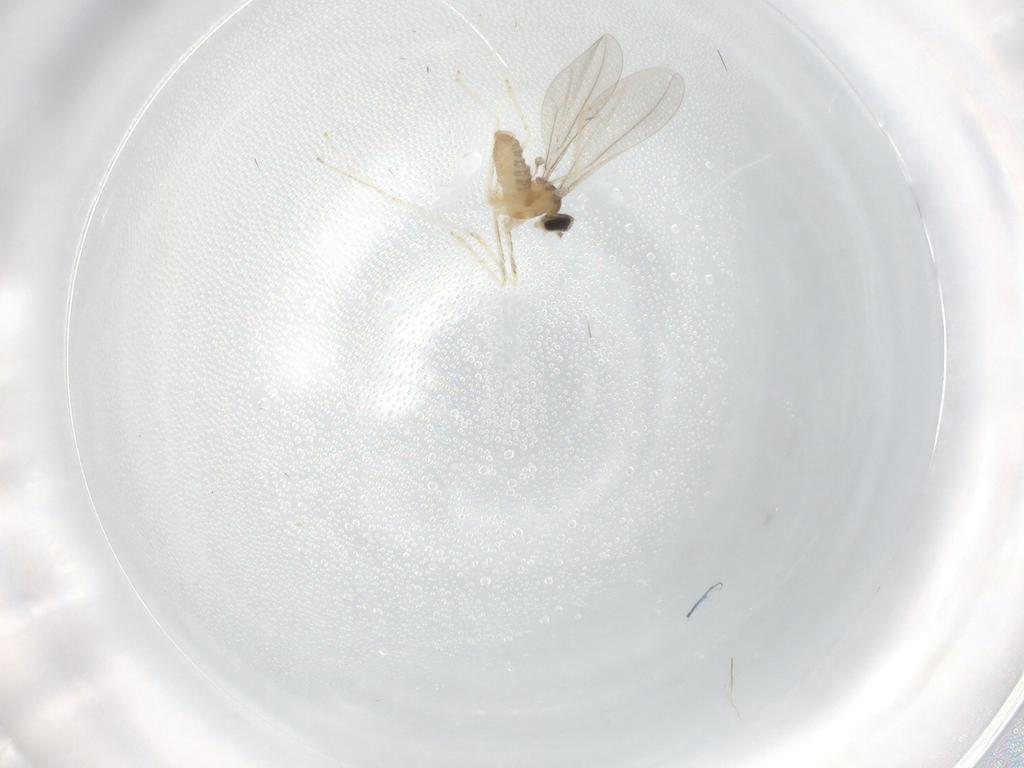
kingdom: Animalia
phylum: Arthropoda
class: Insecta
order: Diptera
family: Cecidomyiidae
